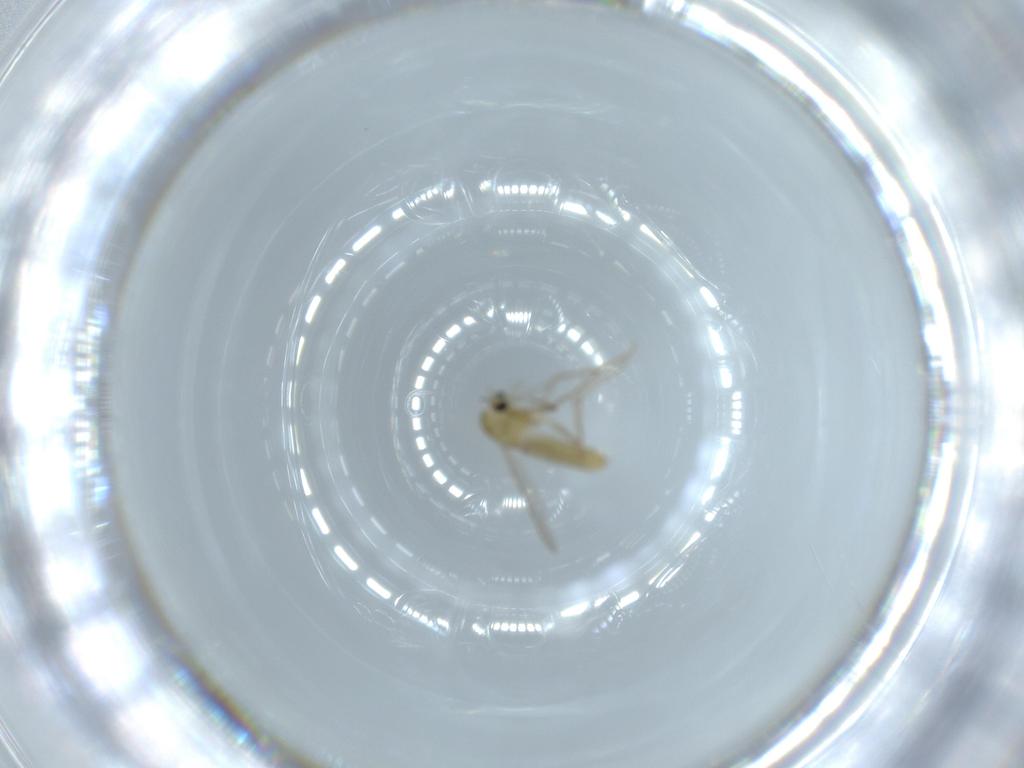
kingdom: Animalia
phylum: Arthropoda
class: Insecta
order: Diptera
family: Chironomidae
